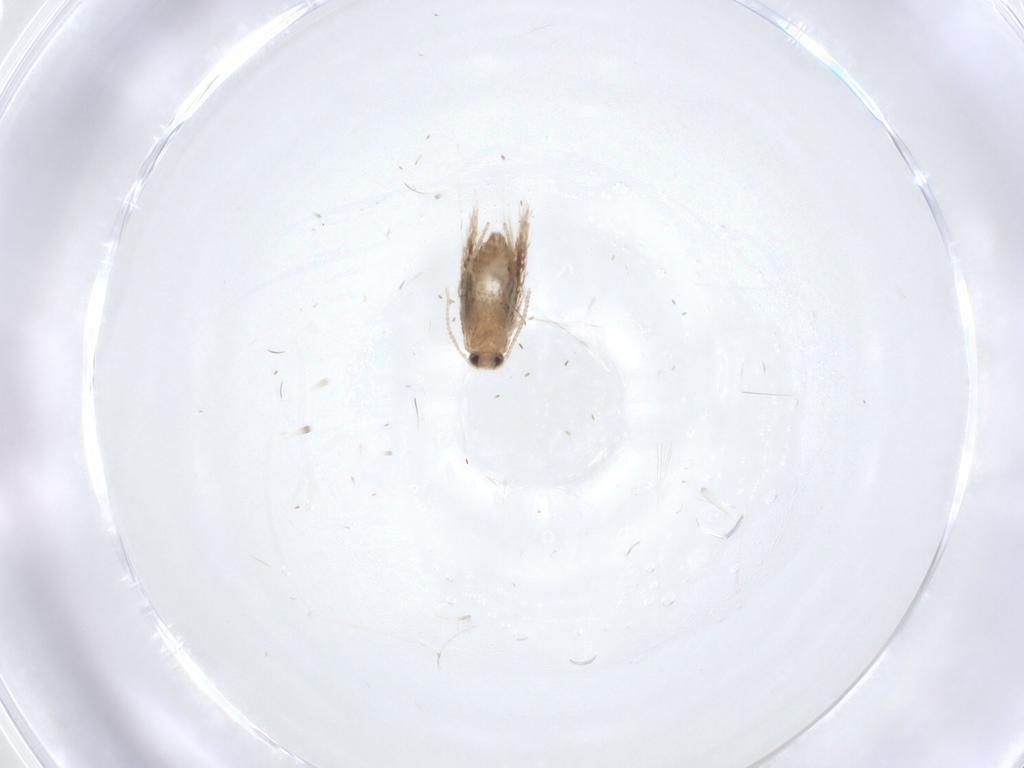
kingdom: Animalia
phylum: Arthropoda
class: Insecta
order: Lepidoptera
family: Nepticulidae
